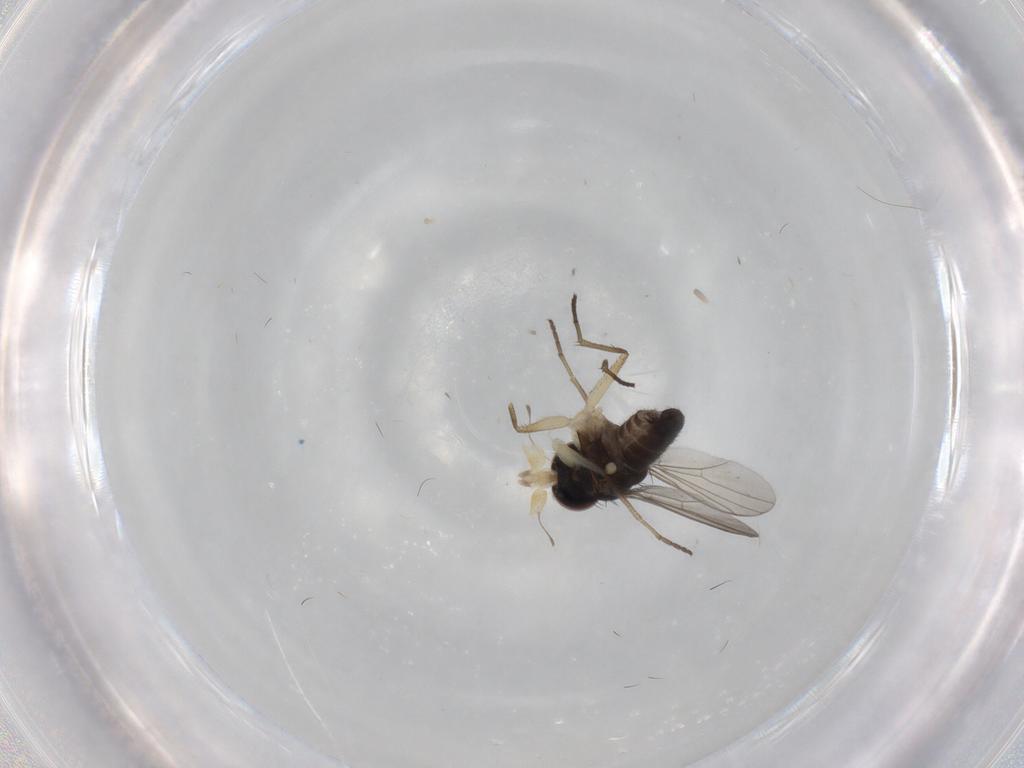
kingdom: Animalia
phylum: Arthropoda
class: Insecta
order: Diptera
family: Dolichopodidae
